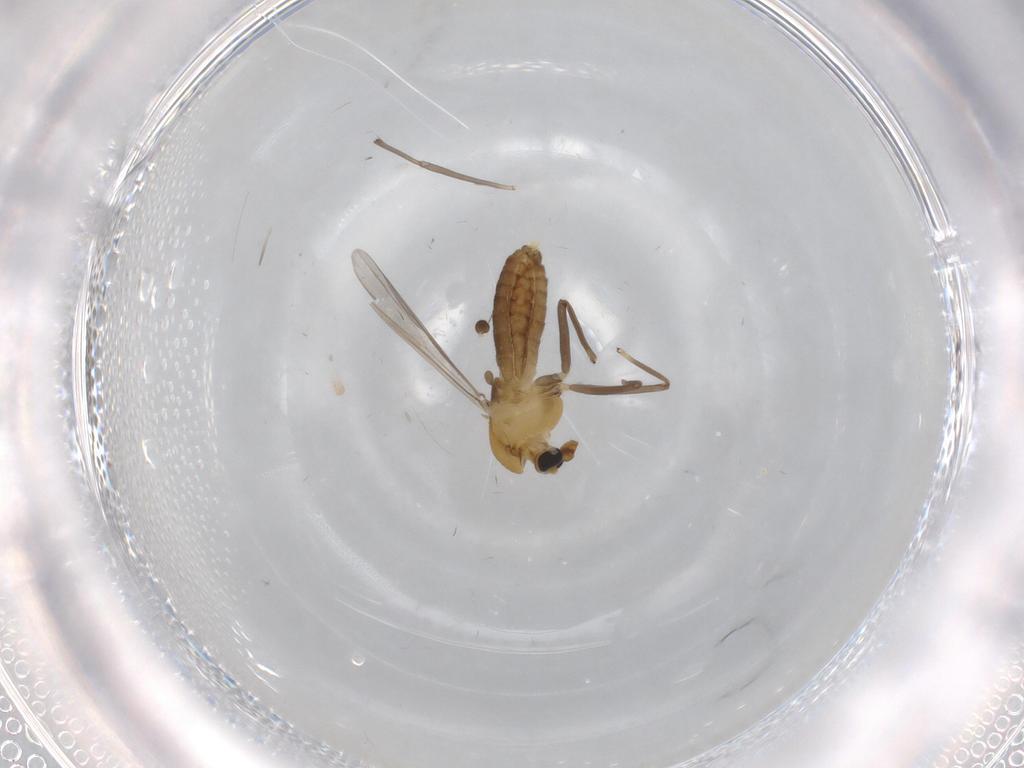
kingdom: Animalia
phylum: Arthropoda
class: Insecta
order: Diptera
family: Chironomidae
